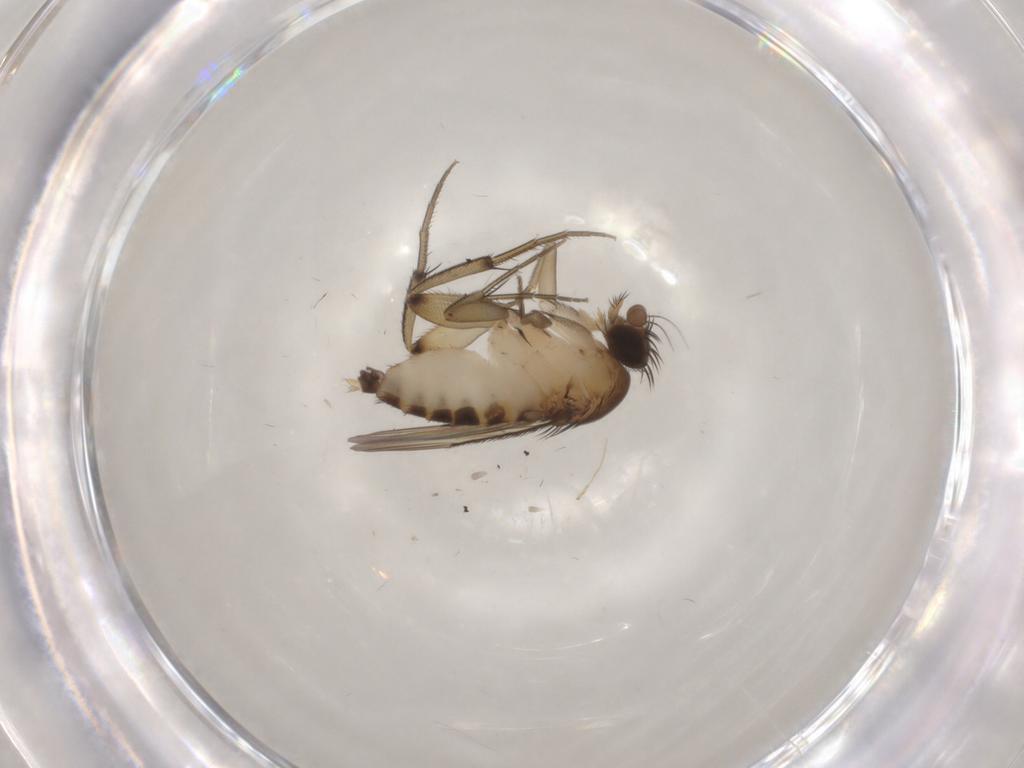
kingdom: Animalia
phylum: Arthropoda
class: Insecta
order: Diptera
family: Phoridae
